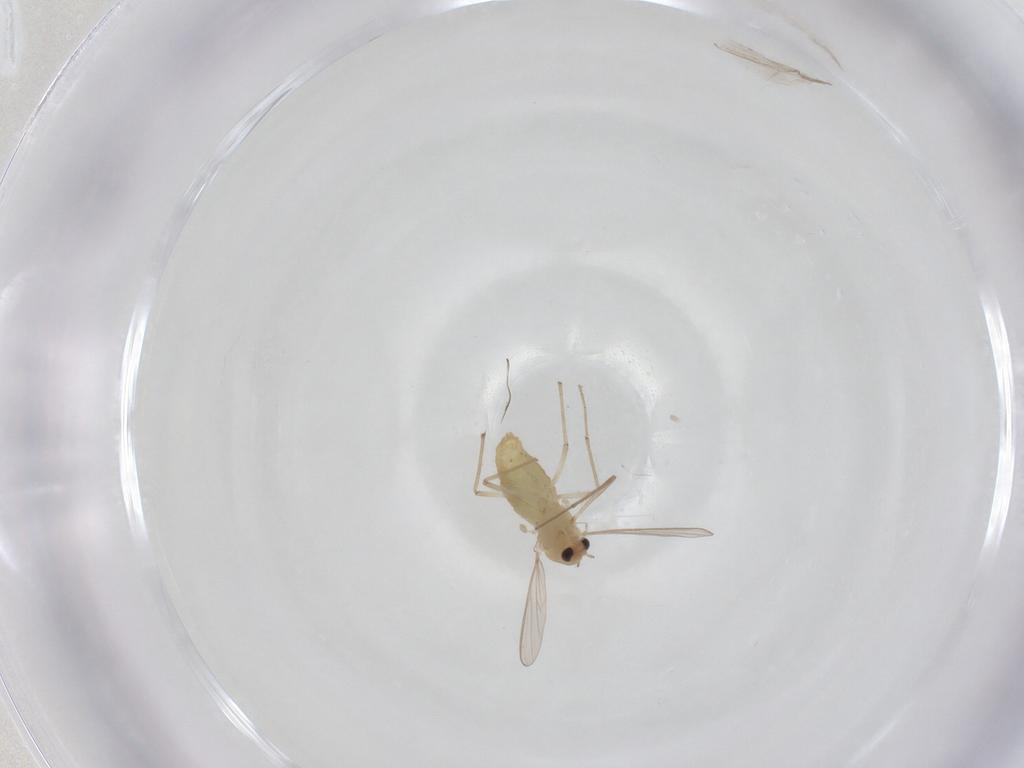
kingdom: Animalia
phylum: Arthropoda
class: Insecta
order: Diptera
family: Chironomidae
